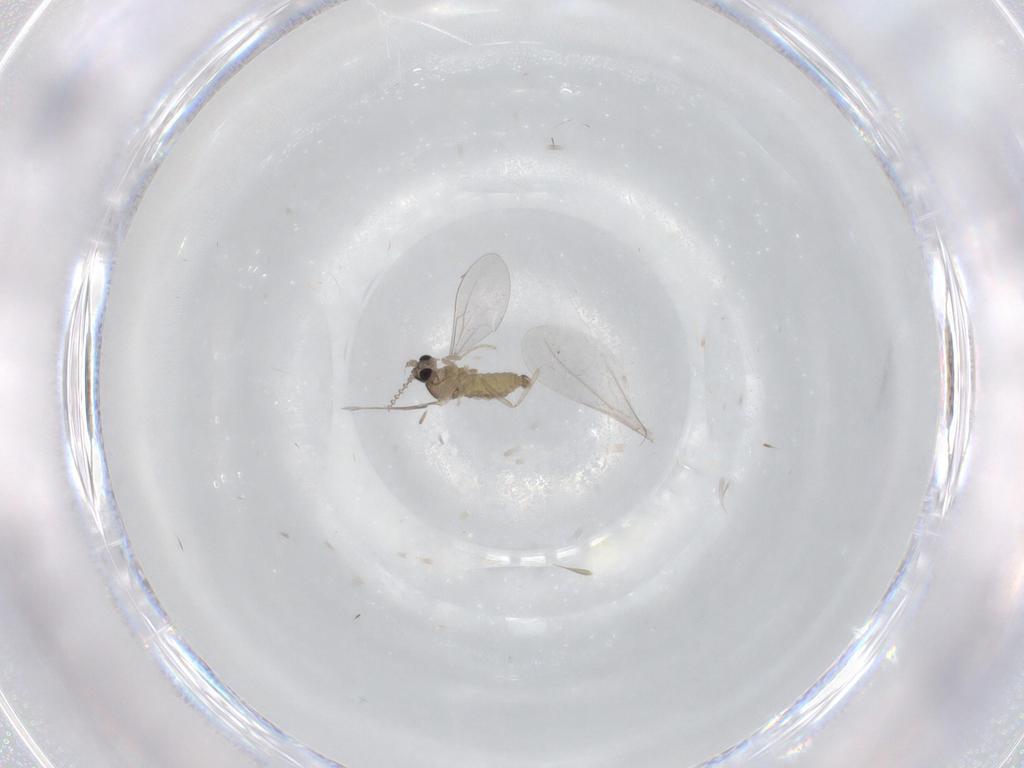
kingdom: Animalia
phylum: Arthropoda
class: Insecta
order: Diptera
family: Cecidomyiidae
